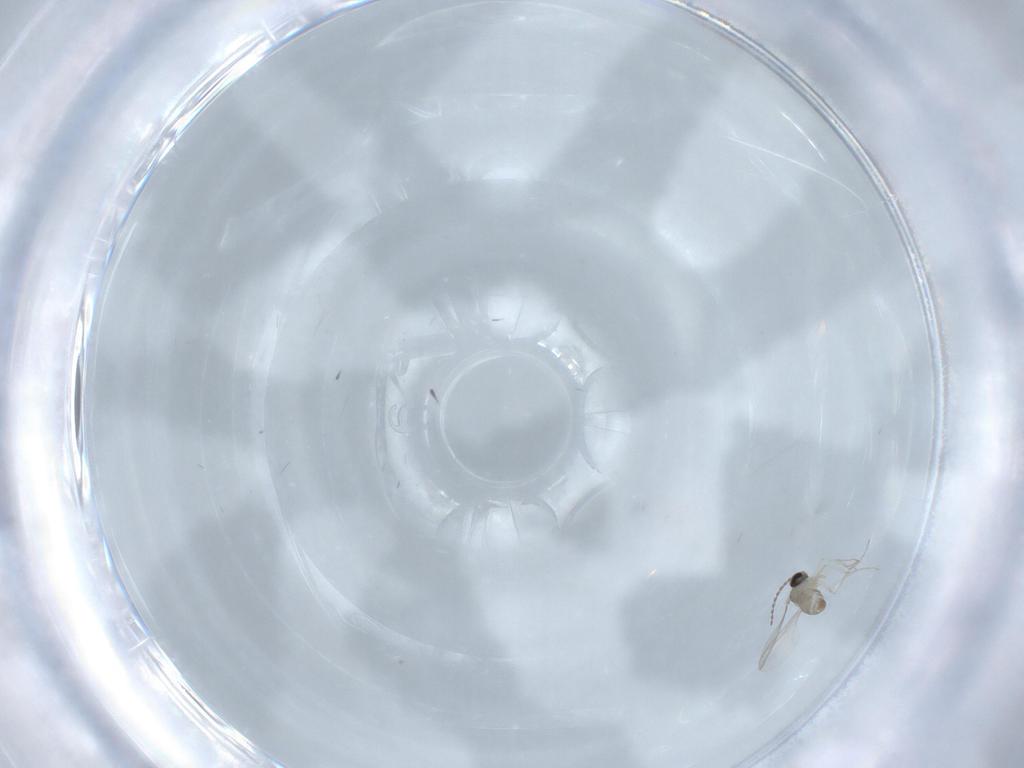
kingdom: Animalia
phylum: Arthropoda
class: Insecta
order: Diptera
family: Cecidomyiidae
